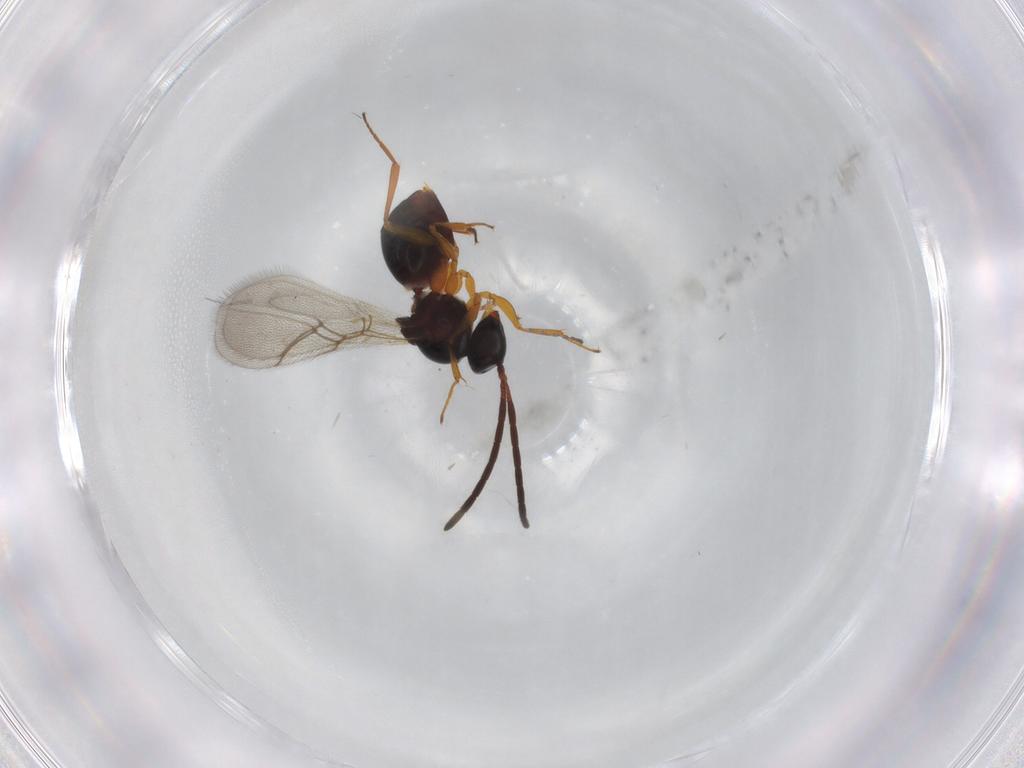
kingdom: Animalia
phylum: Arthropoda
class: Insecta
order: Hymenoptera
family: Figitidae
